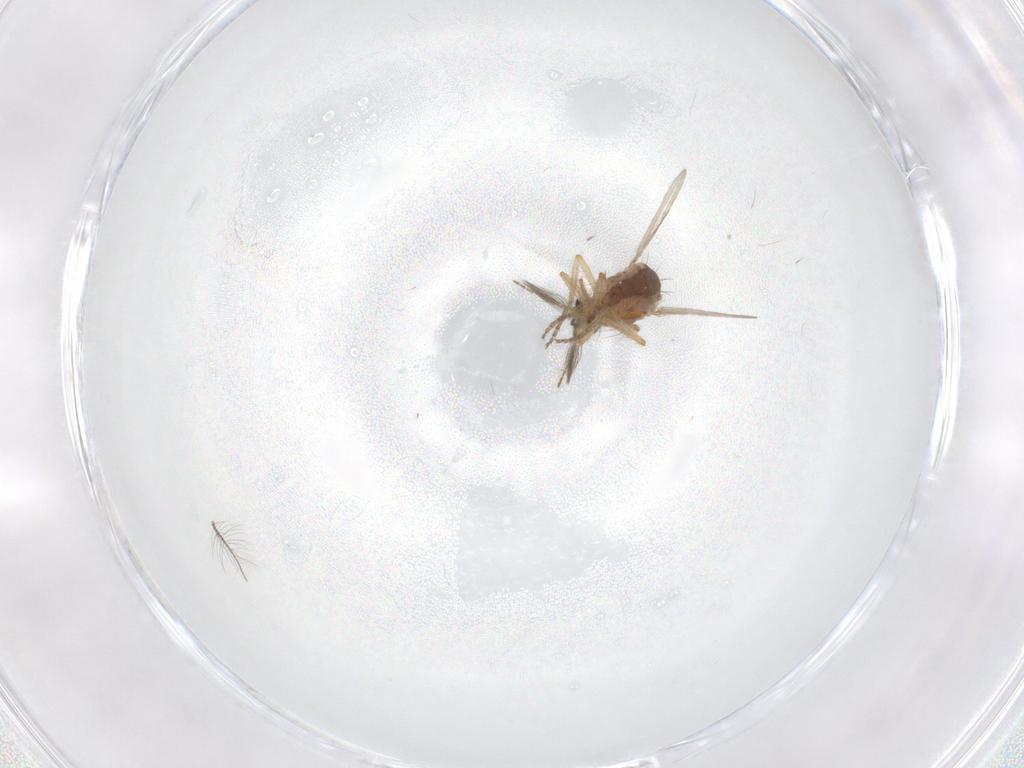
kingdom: Animalia
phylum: Arthropoda
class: Insecta
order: Diptera
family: Ceratopogonidae
